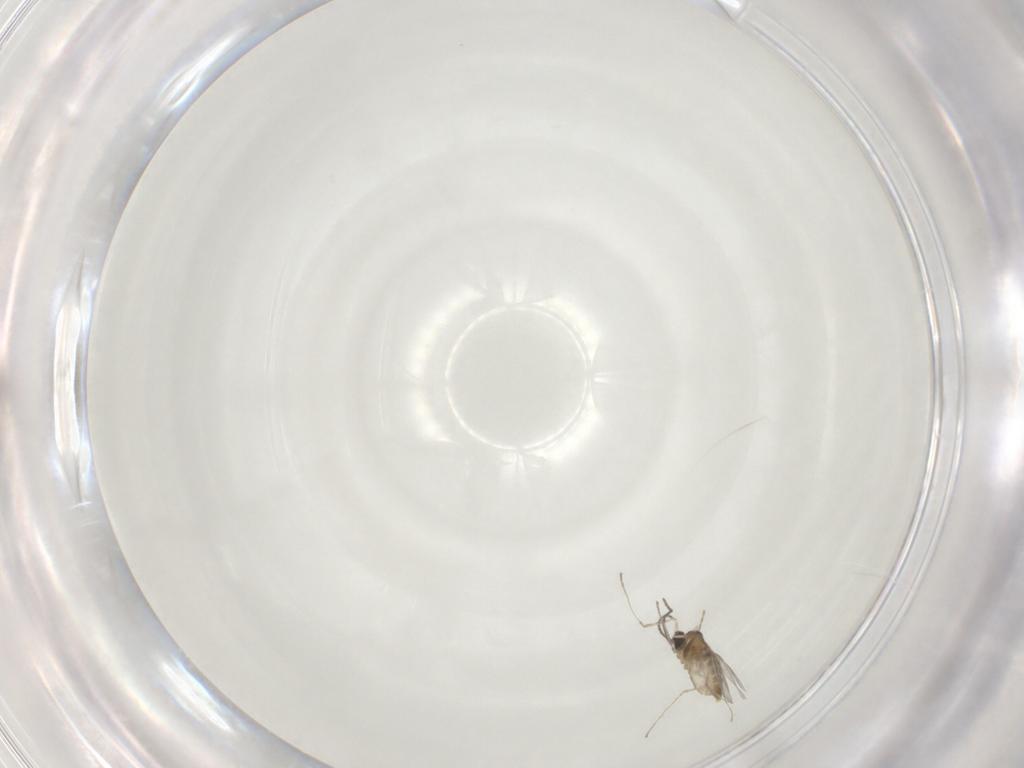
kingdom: Animalia
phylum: Arthropoda
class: Insecta
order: Diptera
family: Cecidomyiidae
